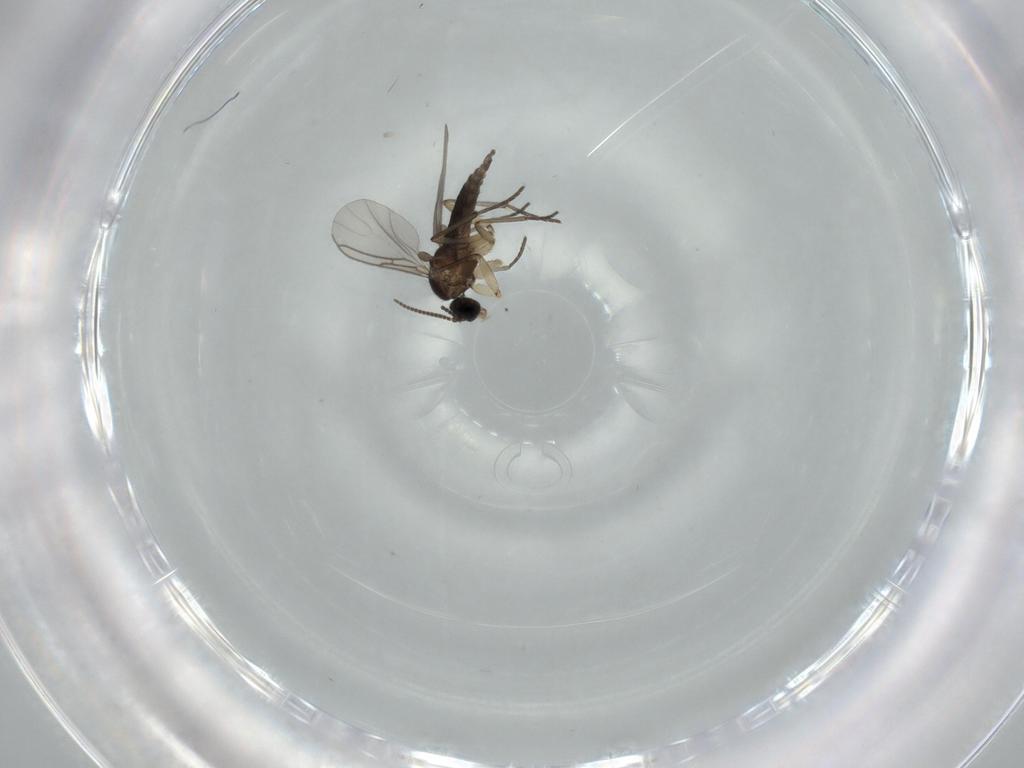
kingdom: Animalia
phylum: Arthropoda
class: Insecta
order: Diptera
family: Sciaridae
